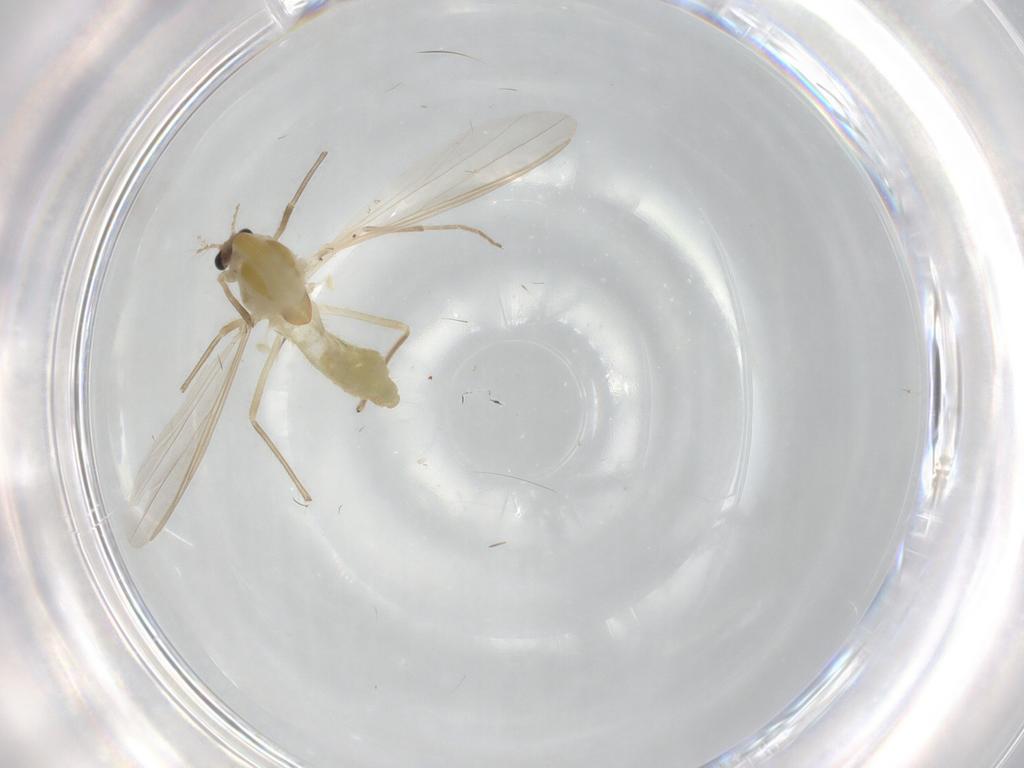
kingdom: Animalia
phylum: Arthropoda
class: Insecta
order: Diptera
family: Chironomidae
